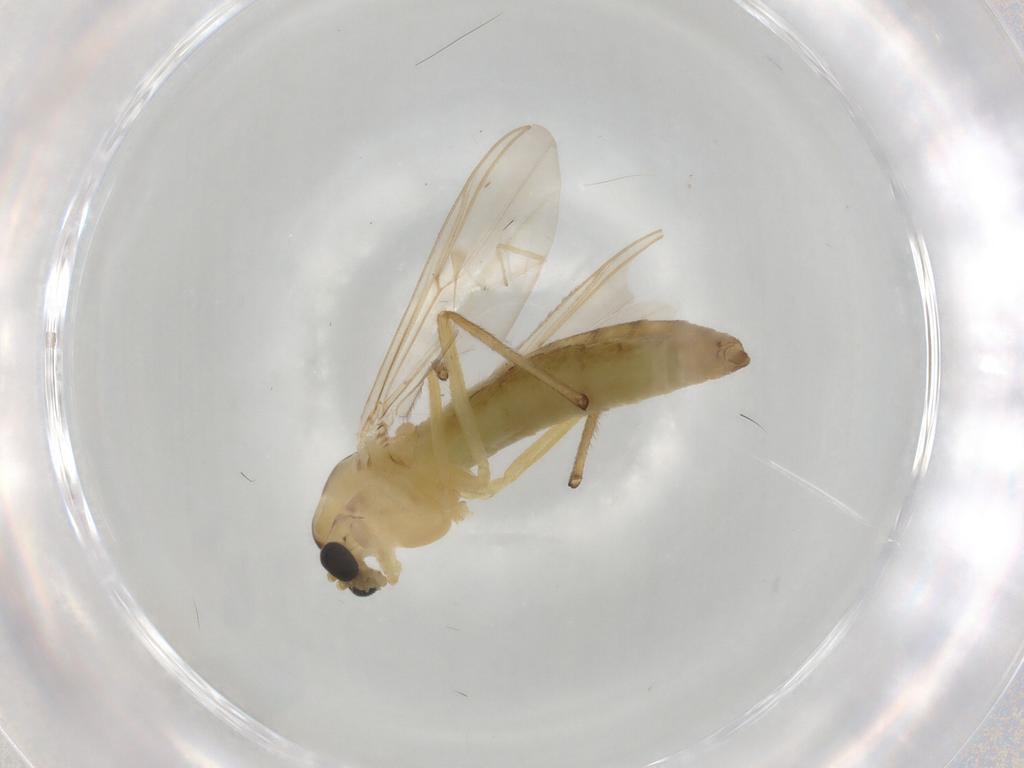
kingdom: Animalia
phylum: Arthropoda
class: Insecta
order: Diptera
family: Chironomidae
